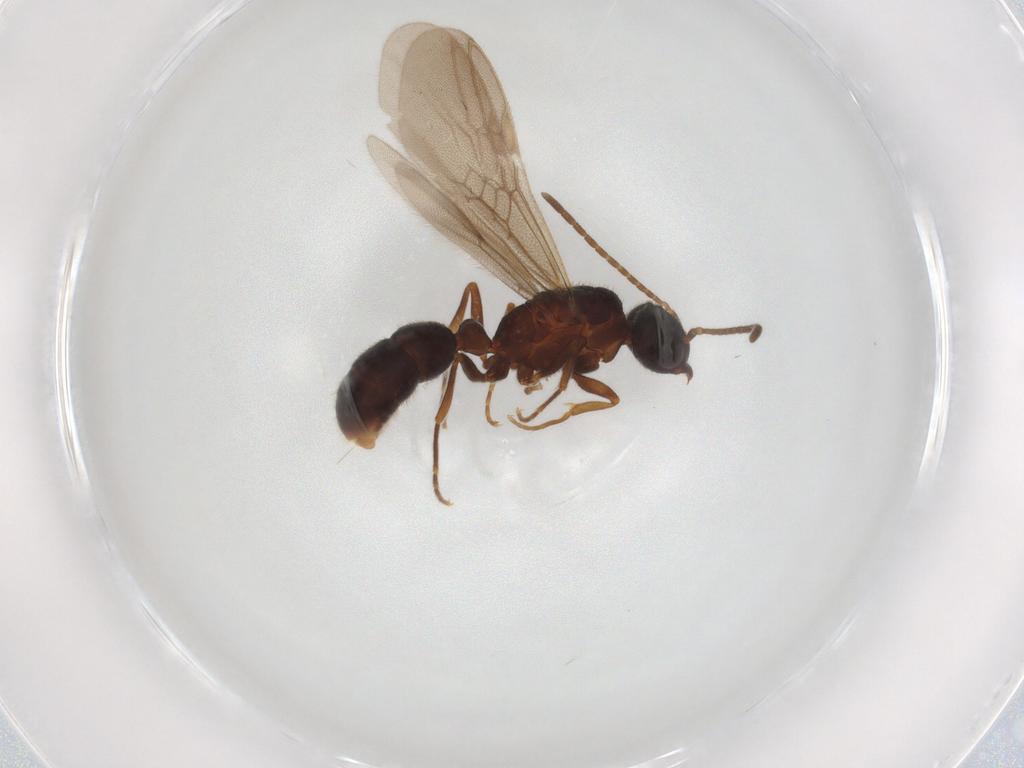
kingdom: Animalia
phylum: Arthropoda
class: Insecta
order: Hymenoptera
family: Formicidae
